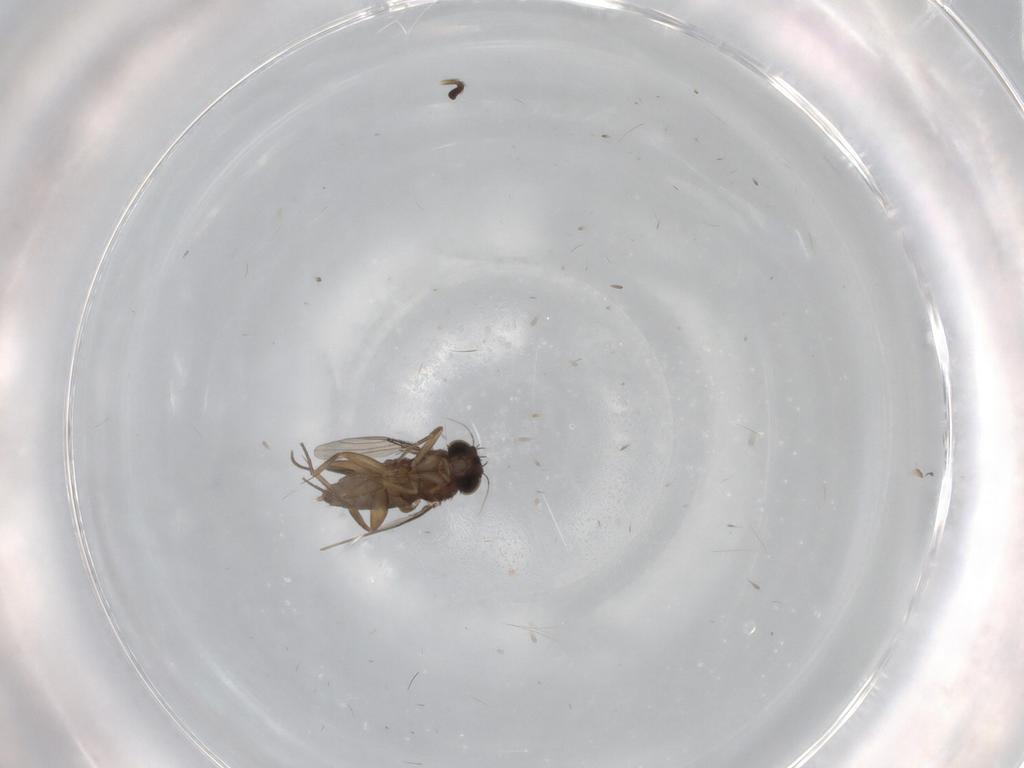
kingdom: Animalia
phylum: Arthropoda
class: Insecta
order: Diptera
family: Phoridae
